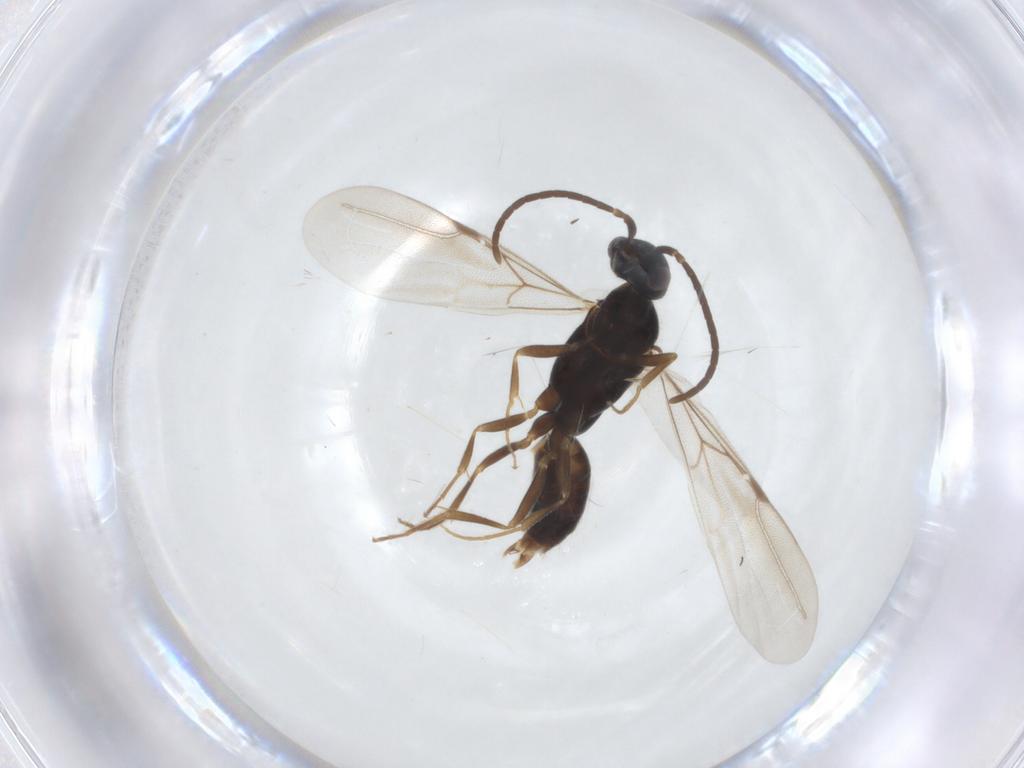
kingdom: Animalia
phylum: Arthropoda
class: Insecta
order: Hymenoptera
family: Bethylidae
